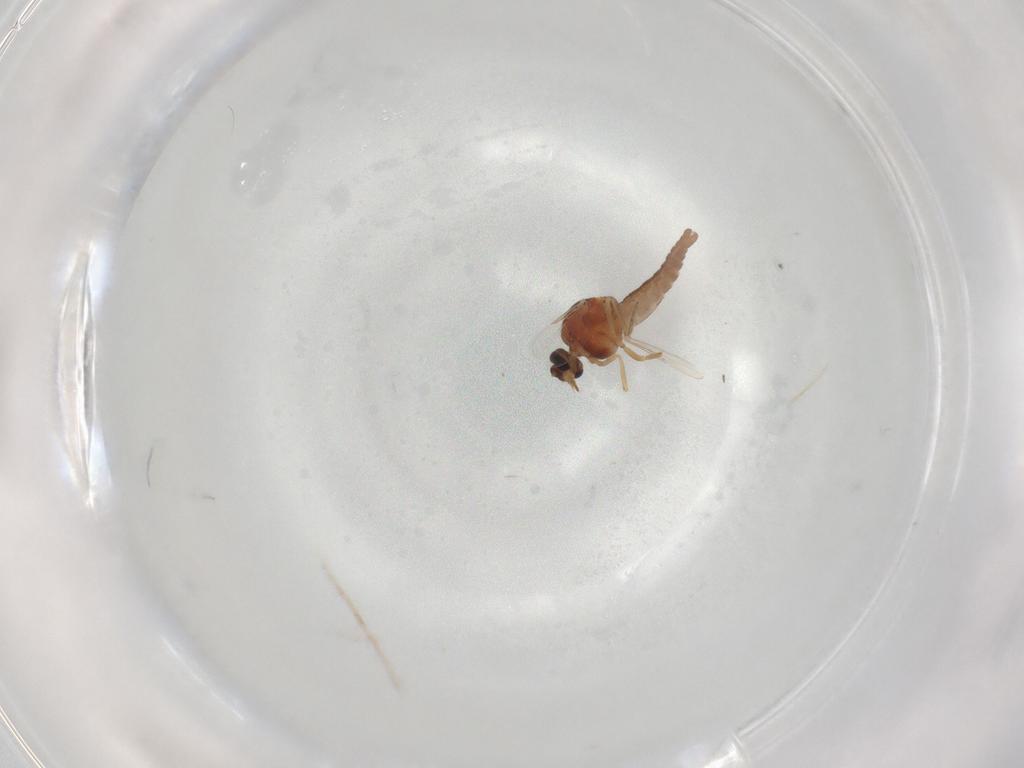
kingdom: Animalia
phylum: Arthropoda
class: Insecta
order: Diptera
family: Ceratopogonidae
